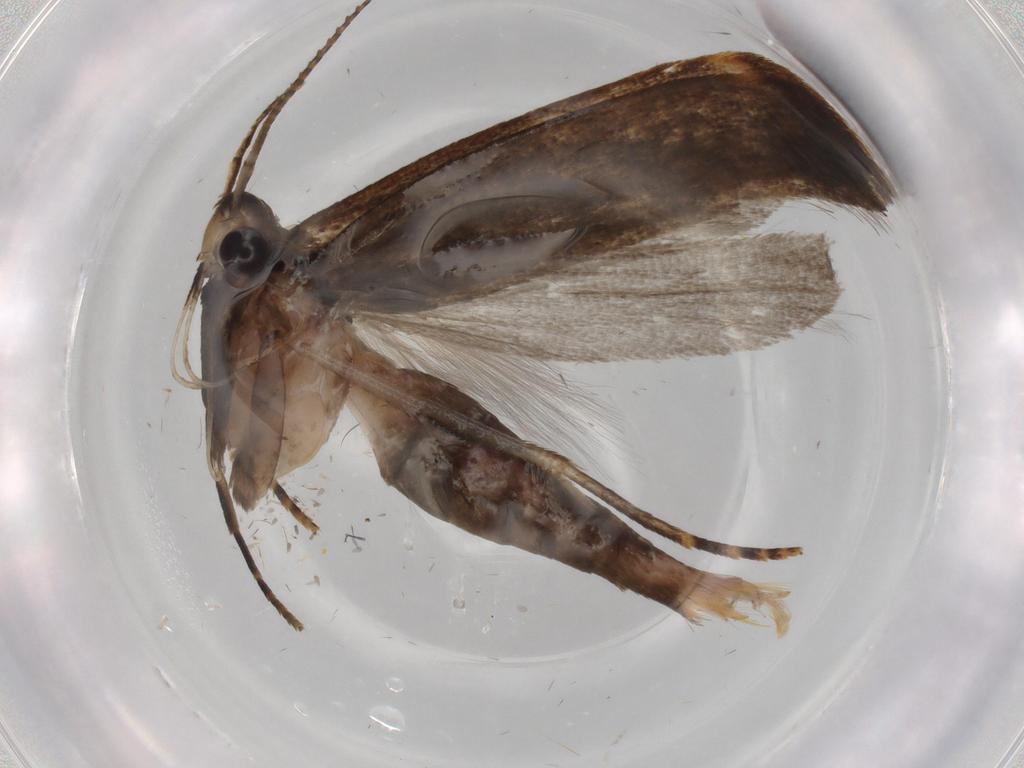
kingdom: Animalia
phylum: Arthropoda
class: Insecta
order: Lepidoptera
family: Gelechiidae
